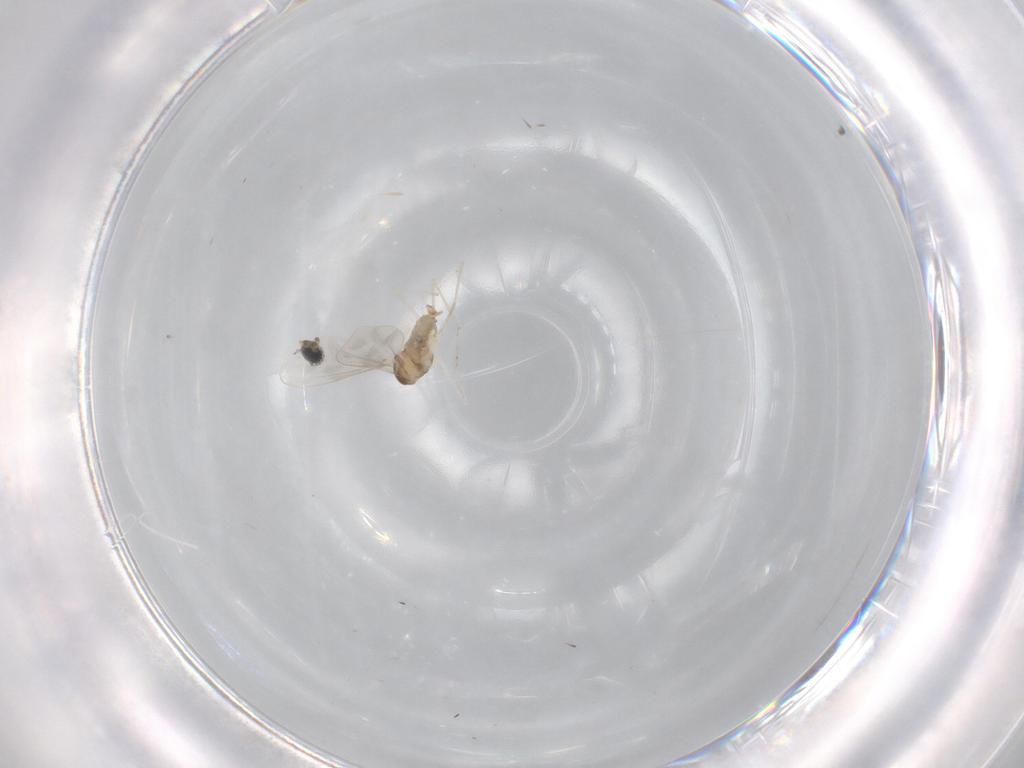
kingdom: Animalia
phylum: Arthropoda
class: Insecta
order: Diptera
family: Cecidomyiidae
